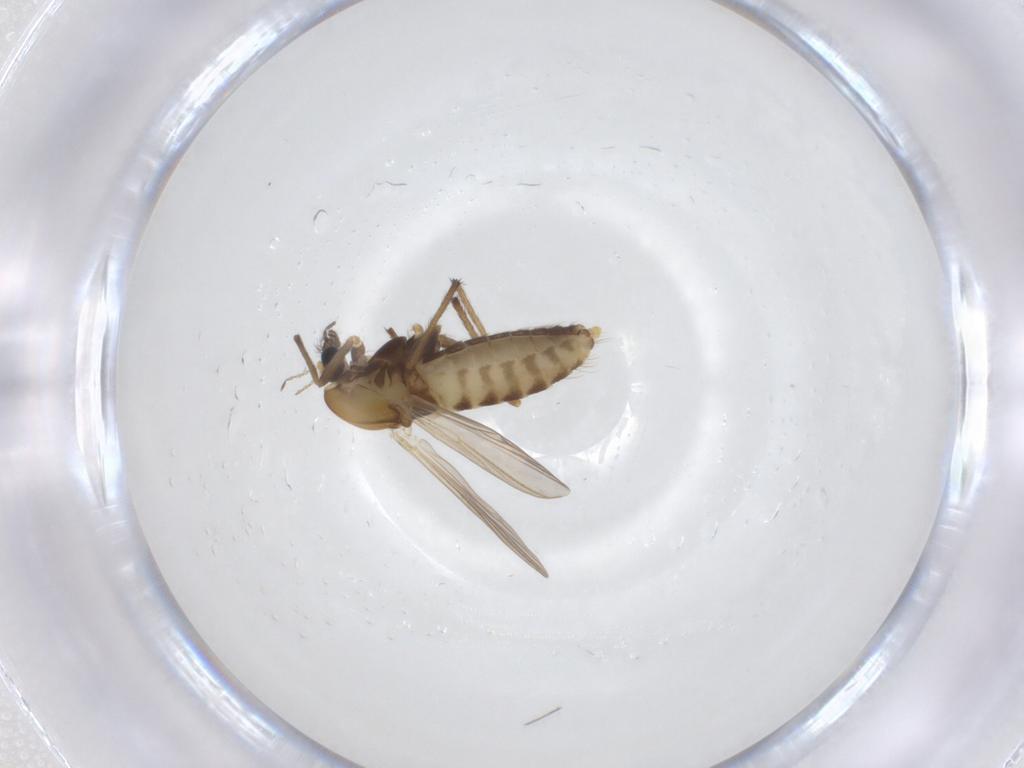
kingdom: Animalia
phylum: Arthropoda
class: Insecta
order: Diptera
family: Chironomidae
